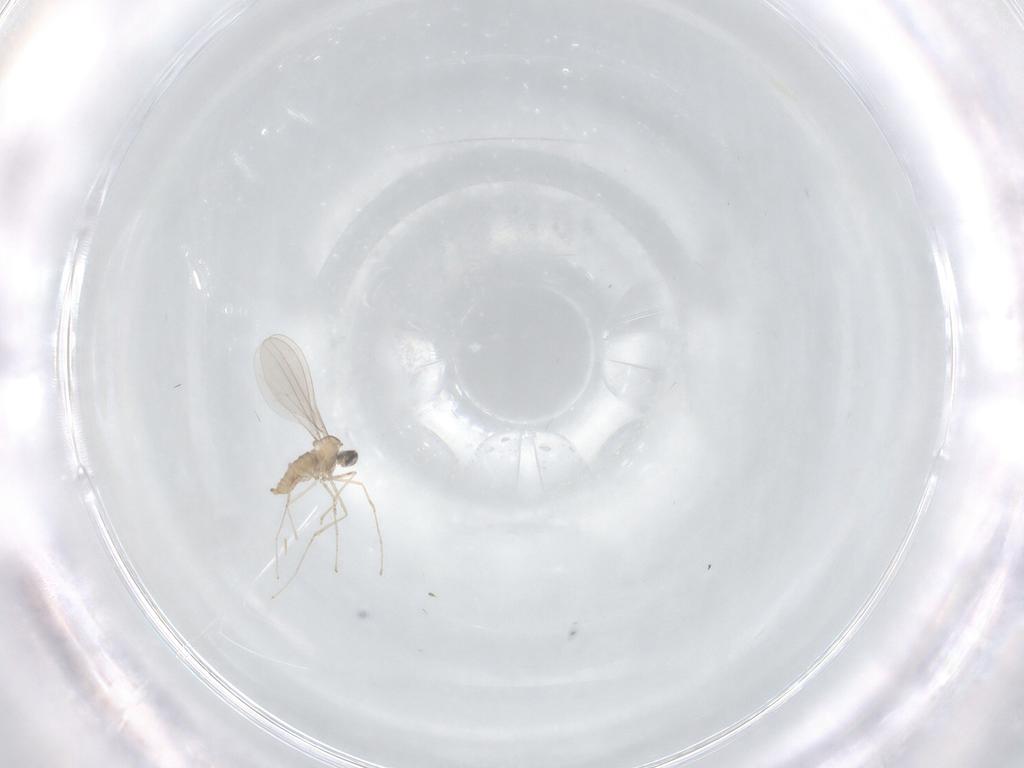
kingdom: Animalia
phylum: Arthropoda
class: Insecta
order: Diptera
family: Cecidomyiidae
